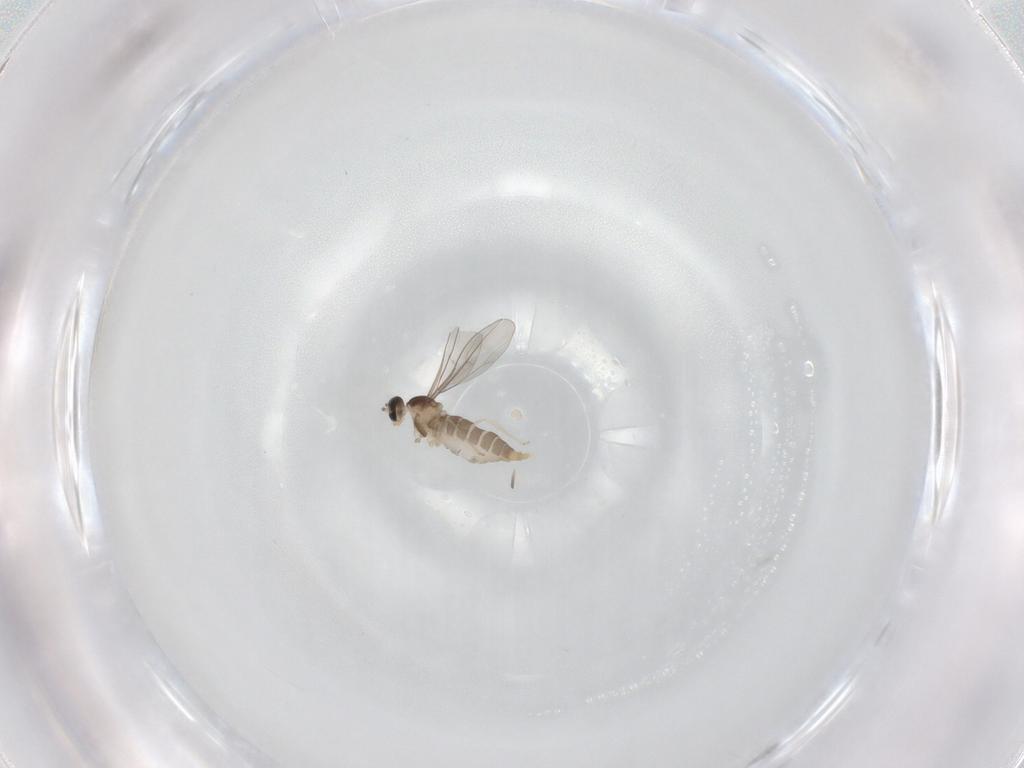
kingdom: Animalia
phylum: Arthropoda
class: Insecta
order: Diptera
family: Cecidomyiidae
